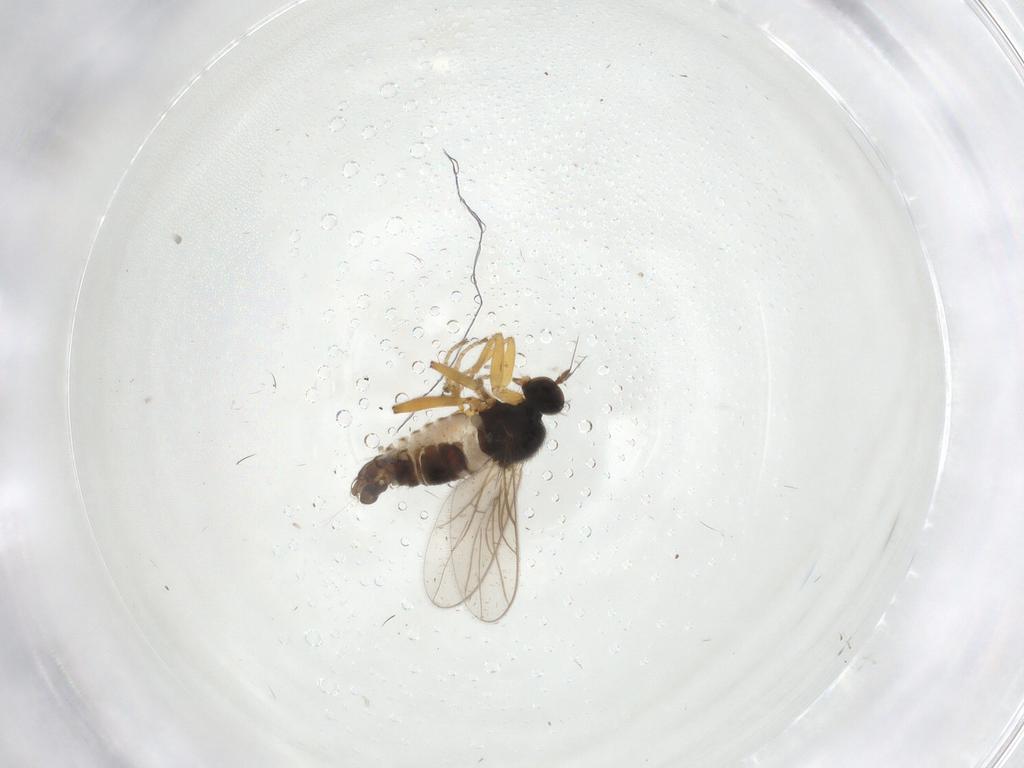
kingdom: Animalia
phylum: Arthropoda
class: Insecta
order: Diptera
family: Hybotidae
